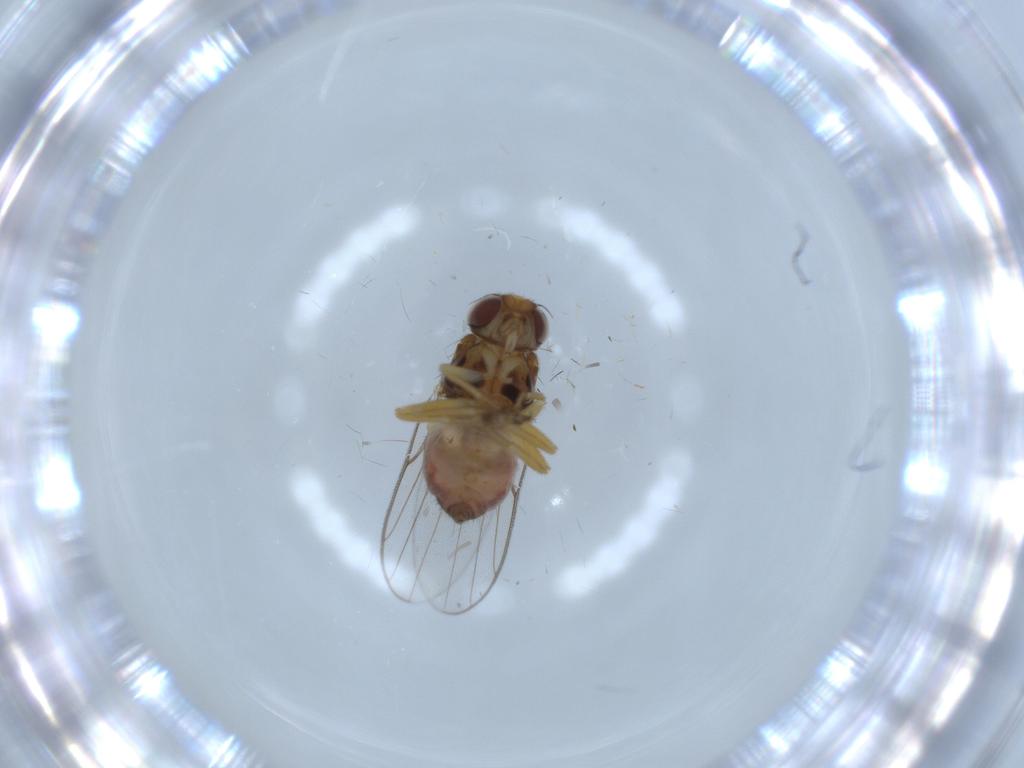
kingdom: Animalia
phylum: Arthropoda
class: Insecta
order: Diptera
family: Chloropidae
